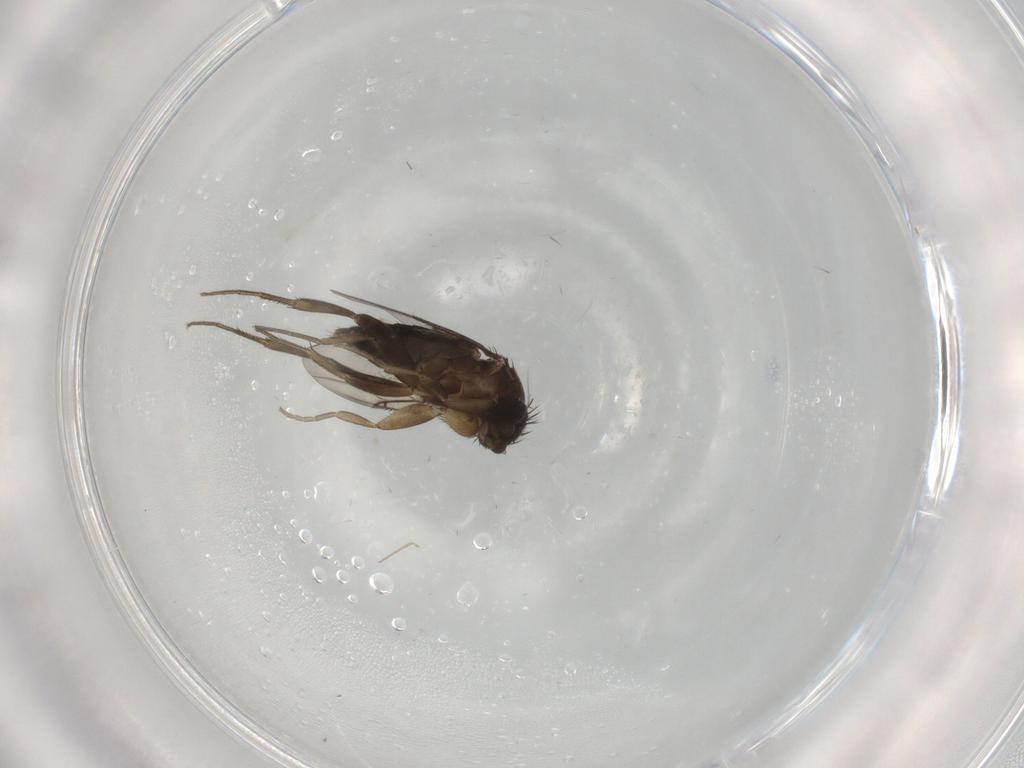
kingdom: Animalia
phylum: Arthropoda
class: Insecta
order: Diptera
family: Phoridae
